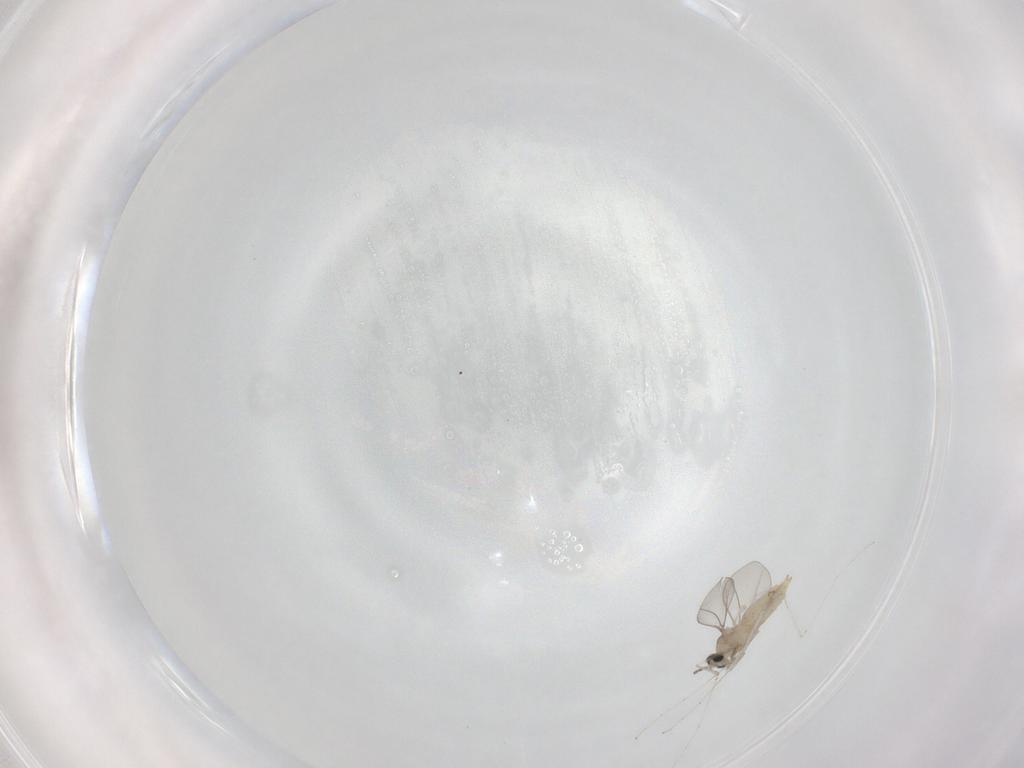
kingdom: Animalia
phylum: Arthropoda
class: Insecta
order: Diptera
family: Cecidomyiidae
